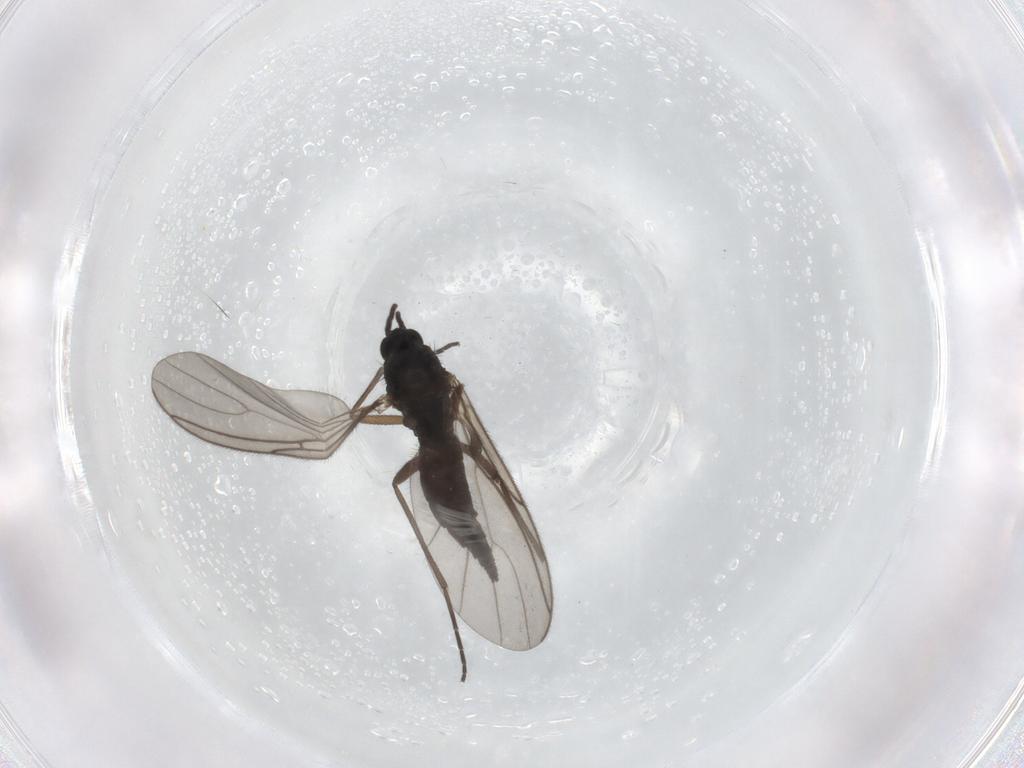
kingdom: Animalia
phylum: Arthropoda
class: Insecta
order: Diptera
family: Sciaridae
